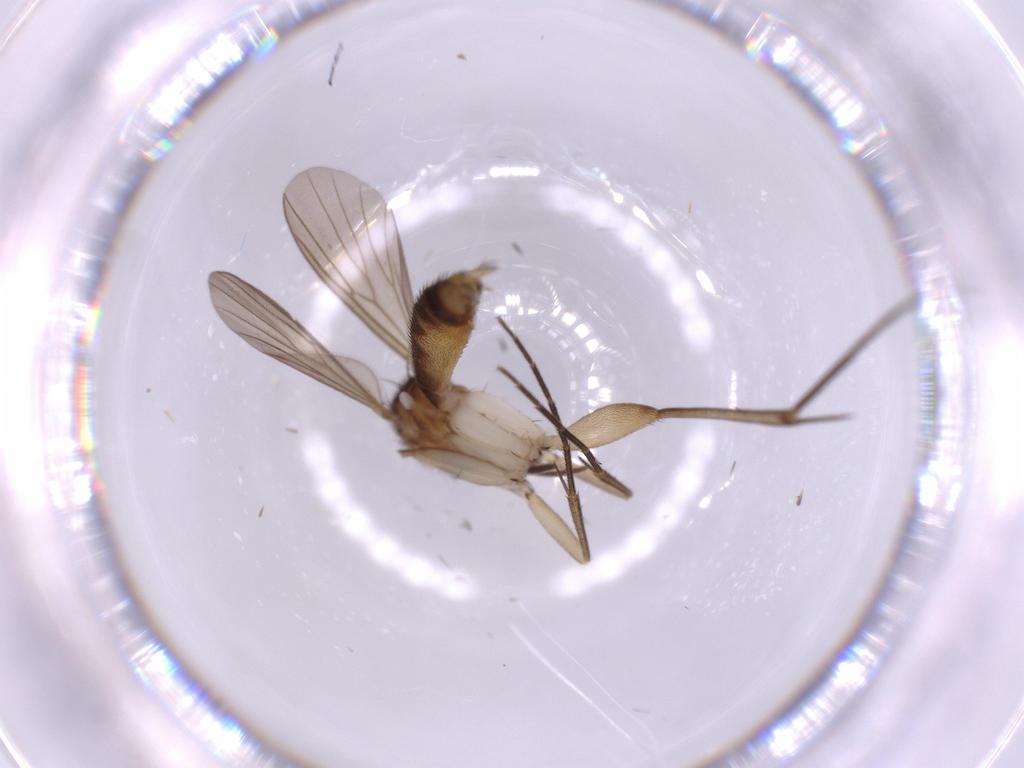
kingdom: Animalia
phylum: Arthropoda
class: Insecta
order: Diptera
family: Mycetophilidae
